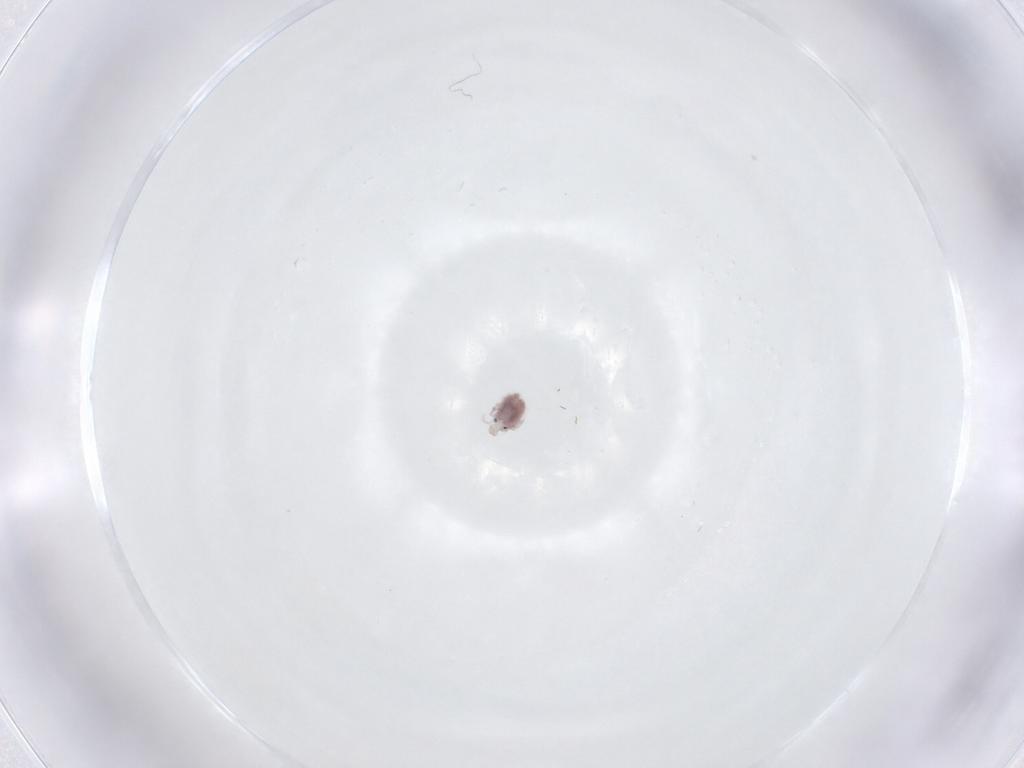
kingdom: Animalia
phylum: Arthropoda
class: Arachnida
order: Trombidiformes
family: Pionidae
